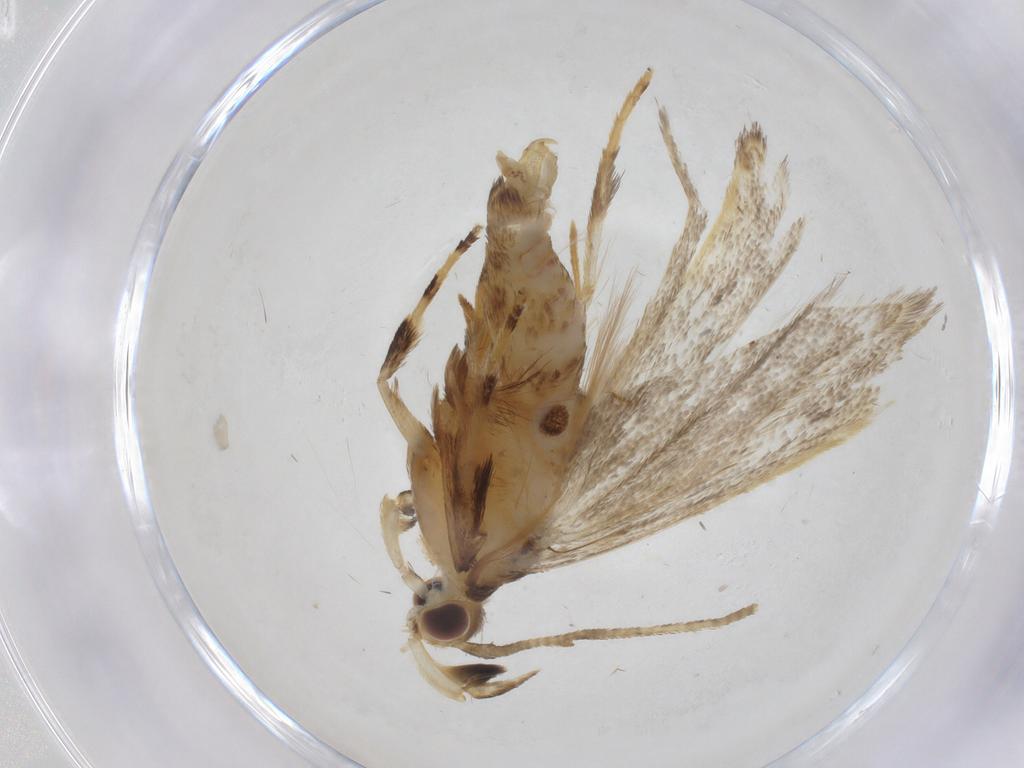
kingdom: Animalia
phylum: Arthropoda
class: Insecta
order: Lepidoptera
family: Lecithoceridae
